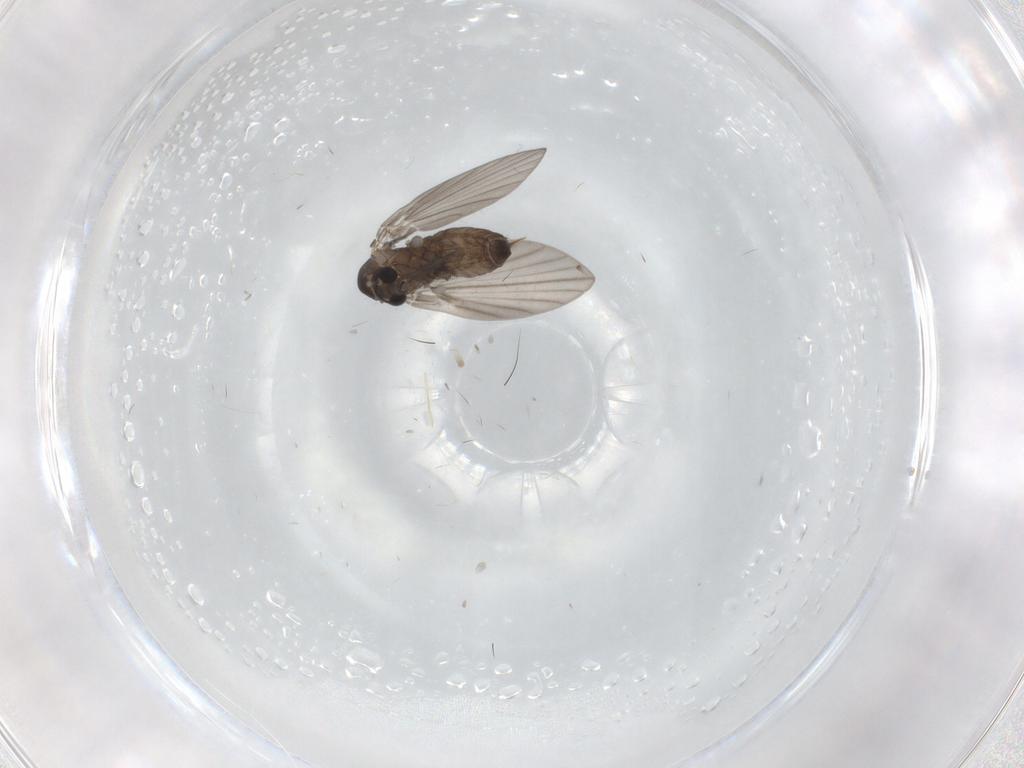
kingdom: Animalia
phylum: Arthropoda
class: Insecta
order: Diptera
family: Psychodidae
